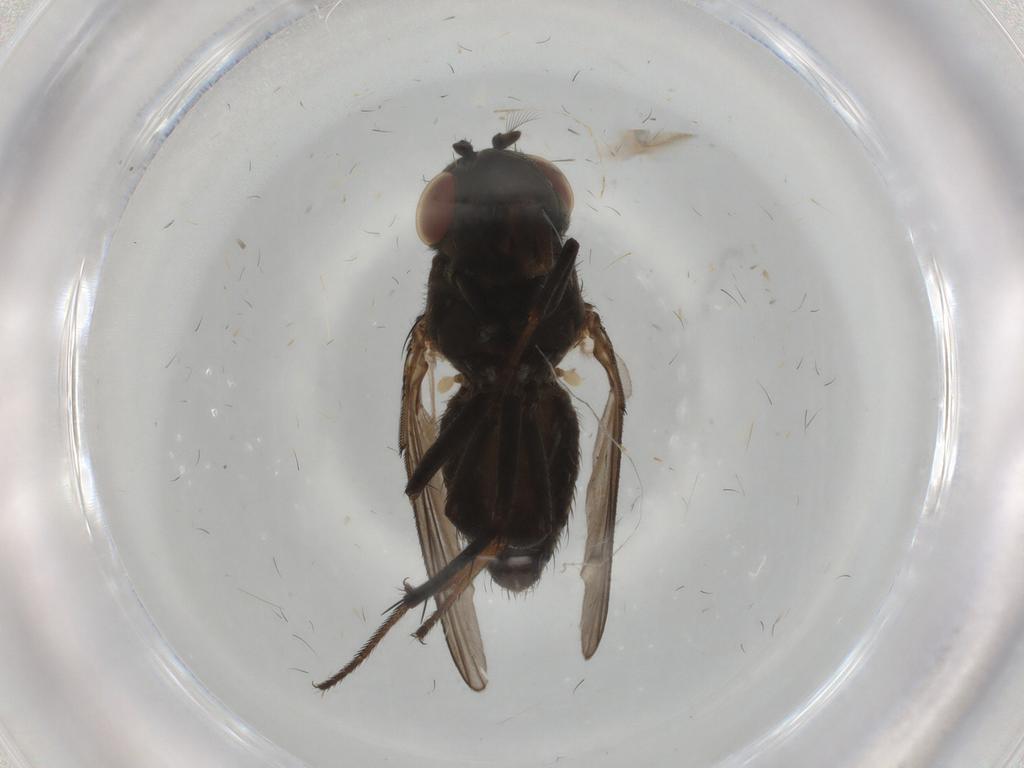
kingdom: Animalia
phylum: Arthropoda
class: Insecta
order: Diptera
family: Ephydridae
